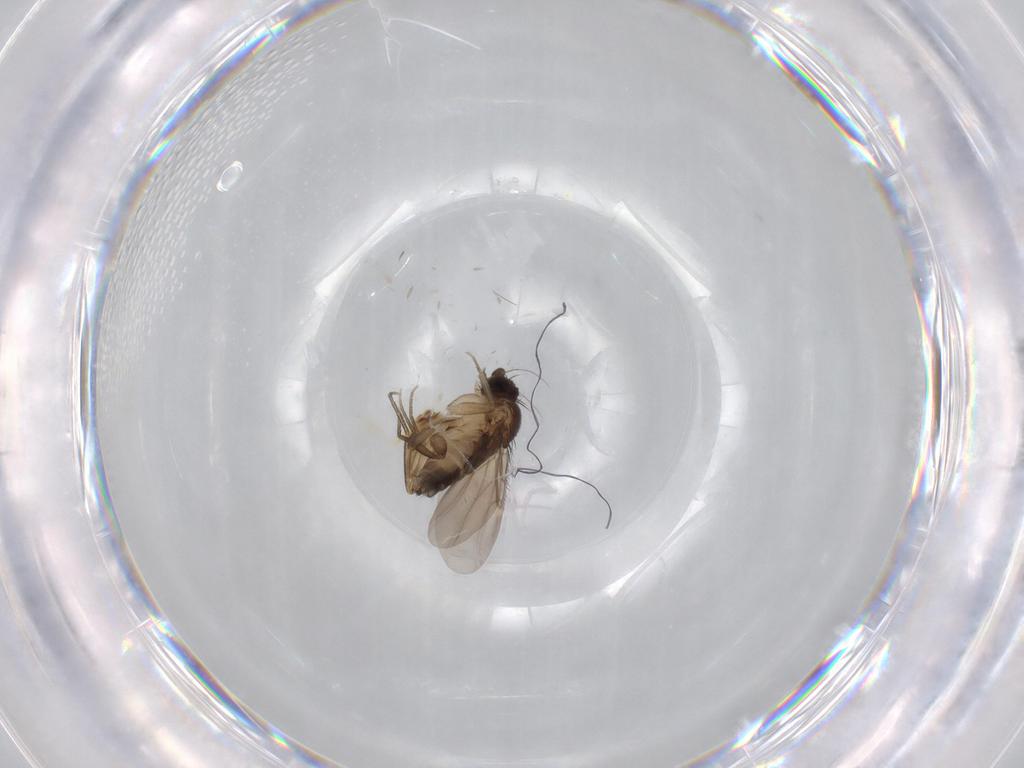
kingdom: Animalia
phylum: Arthropoda
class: Insecta
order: Diptera
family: Phoridae
